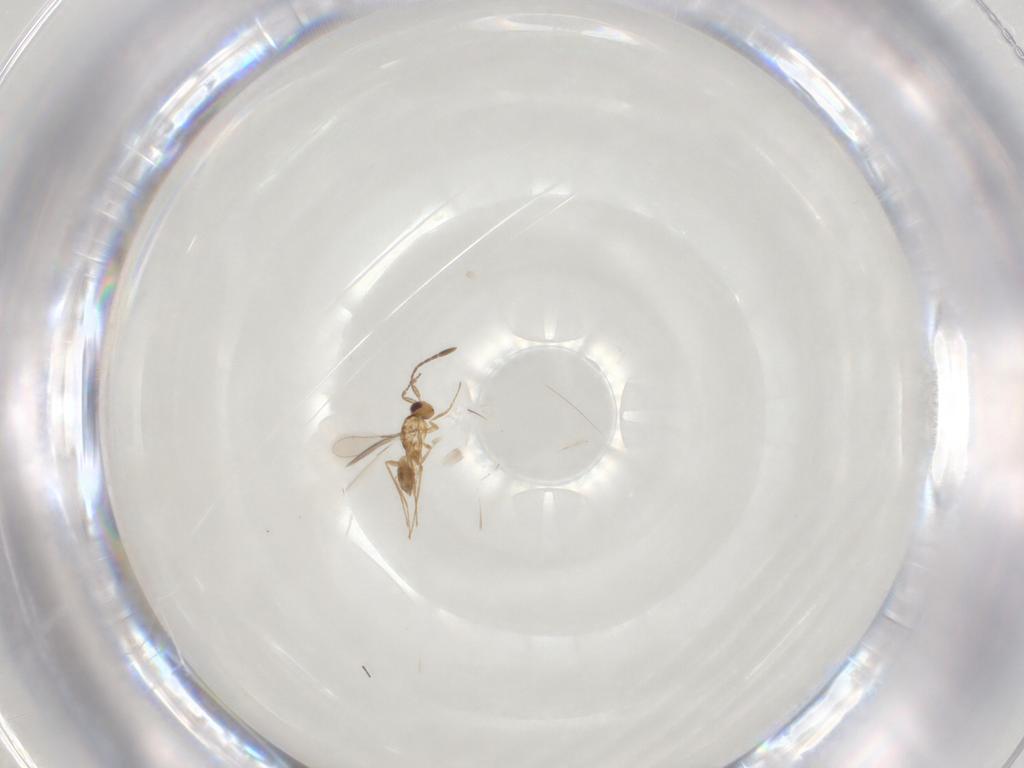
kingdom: Animalia
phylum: Arthropoda
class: Insecta
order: Hymenoptera
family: Mymaridae
